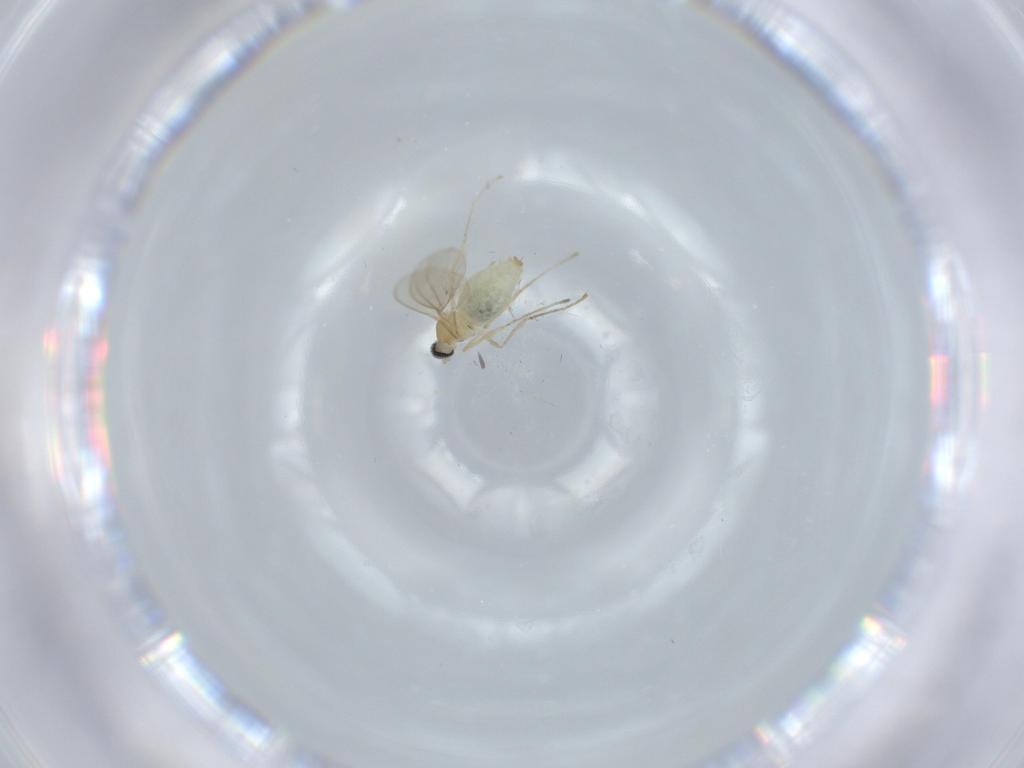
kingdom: Animalia
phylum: Arthropoda
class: Insecta
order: Diptera
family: Cecidomyiidae
